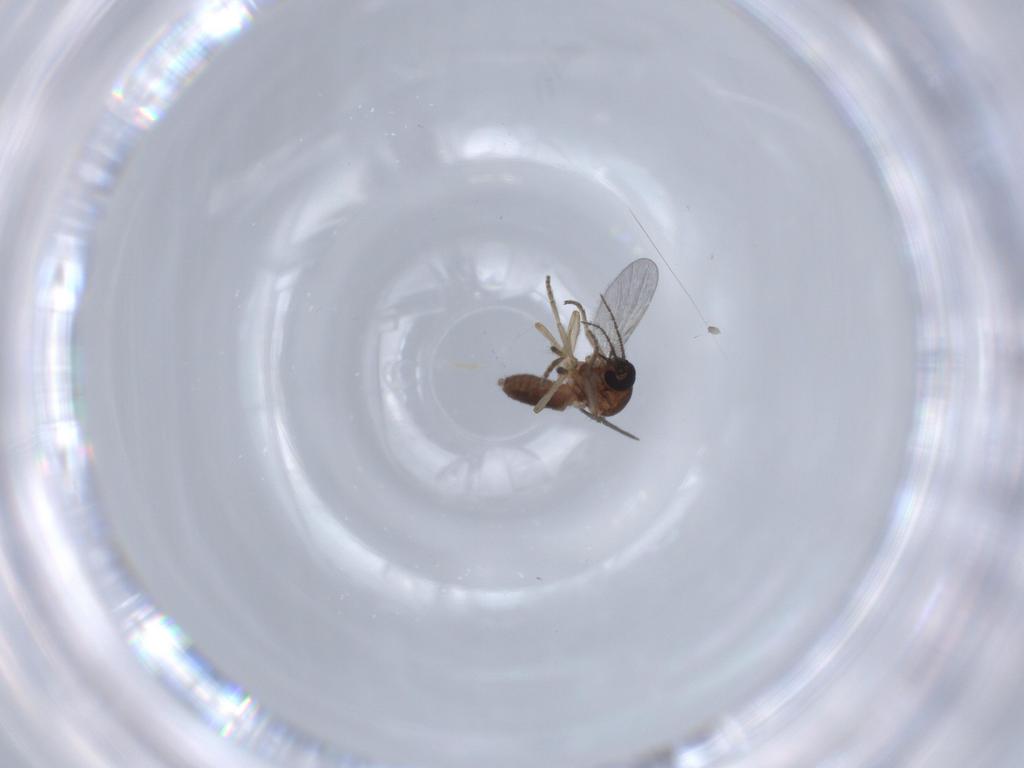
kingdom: Animalia
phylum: Arthropoda
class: Insecta
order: Diptera
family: Ceratopogonidae
